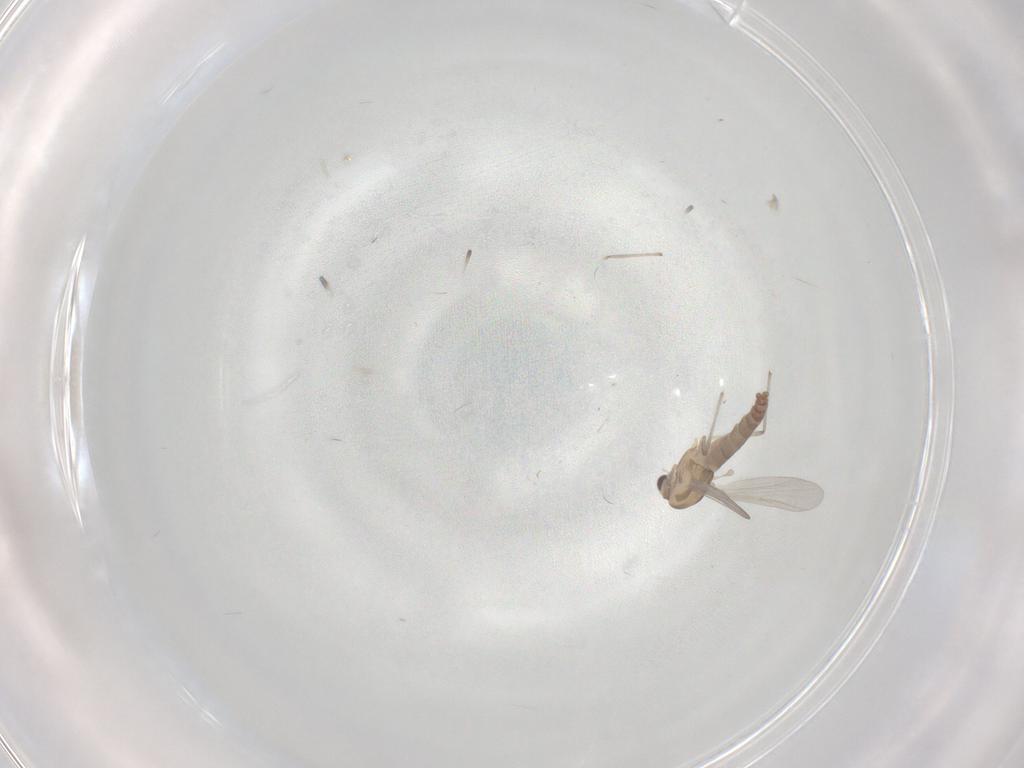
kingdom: Animalia
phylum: Arthropoda
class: Insecta
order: Diptera
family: Chironomidae
